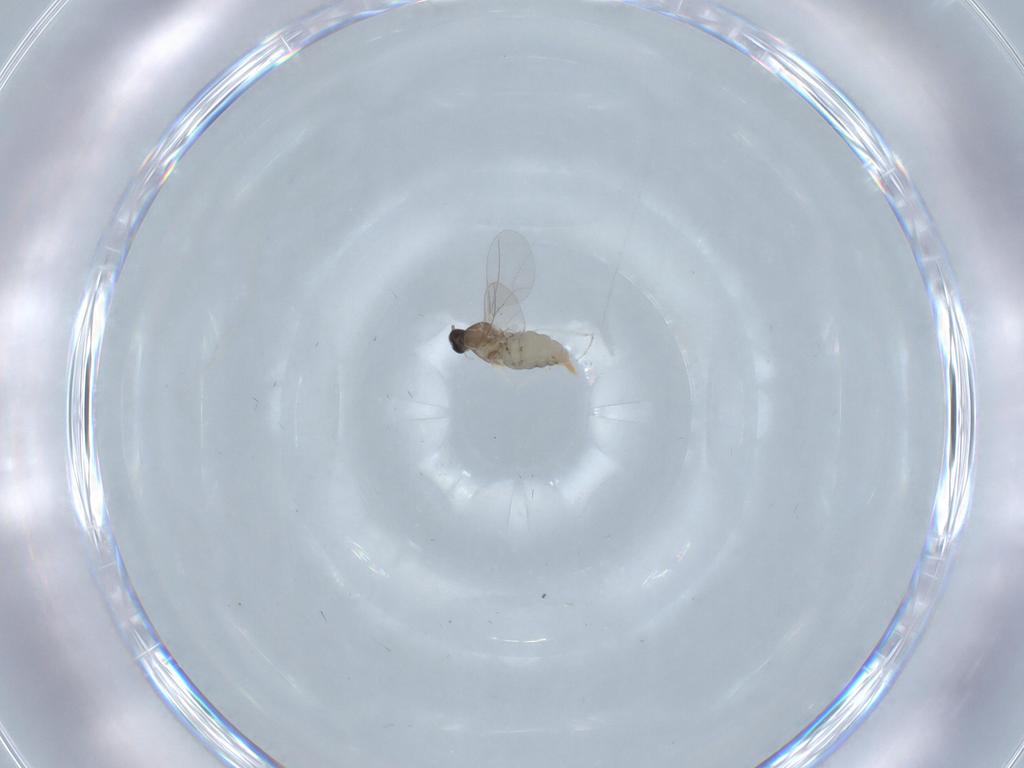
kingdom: Animalia
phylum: Arthropoda
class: Insecta
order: Diptera
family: Cecidomyiidae
